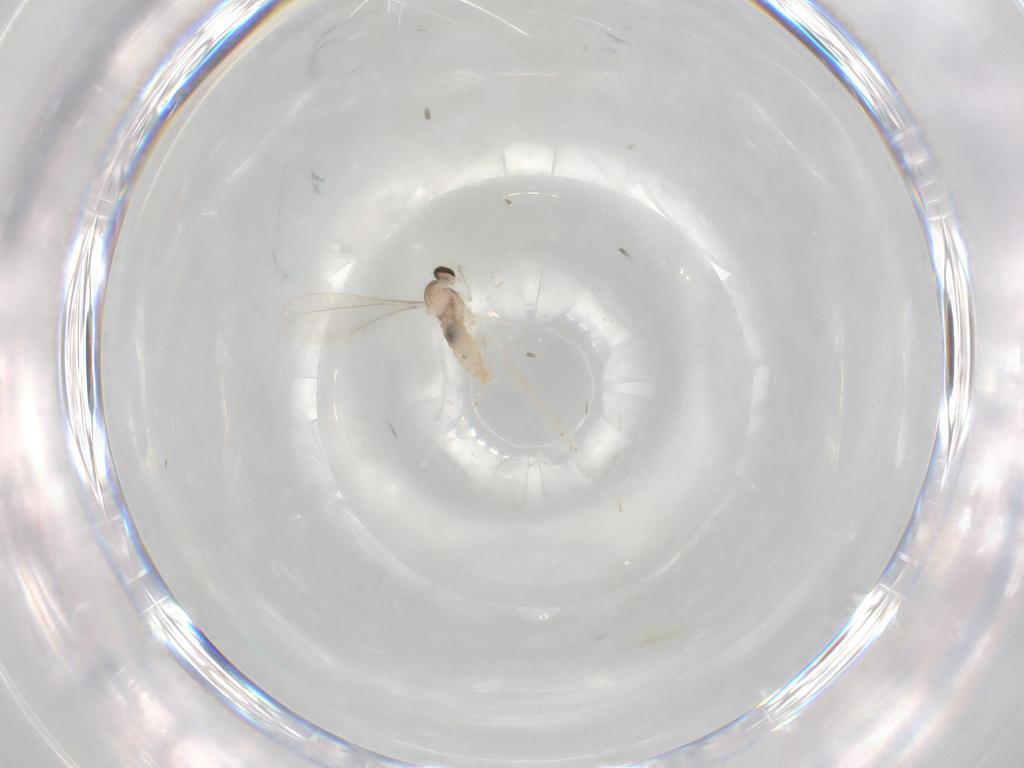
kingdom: Animalia
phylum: Arthropoda
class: Insecta
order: Diptera
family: Cecidomyiidae
